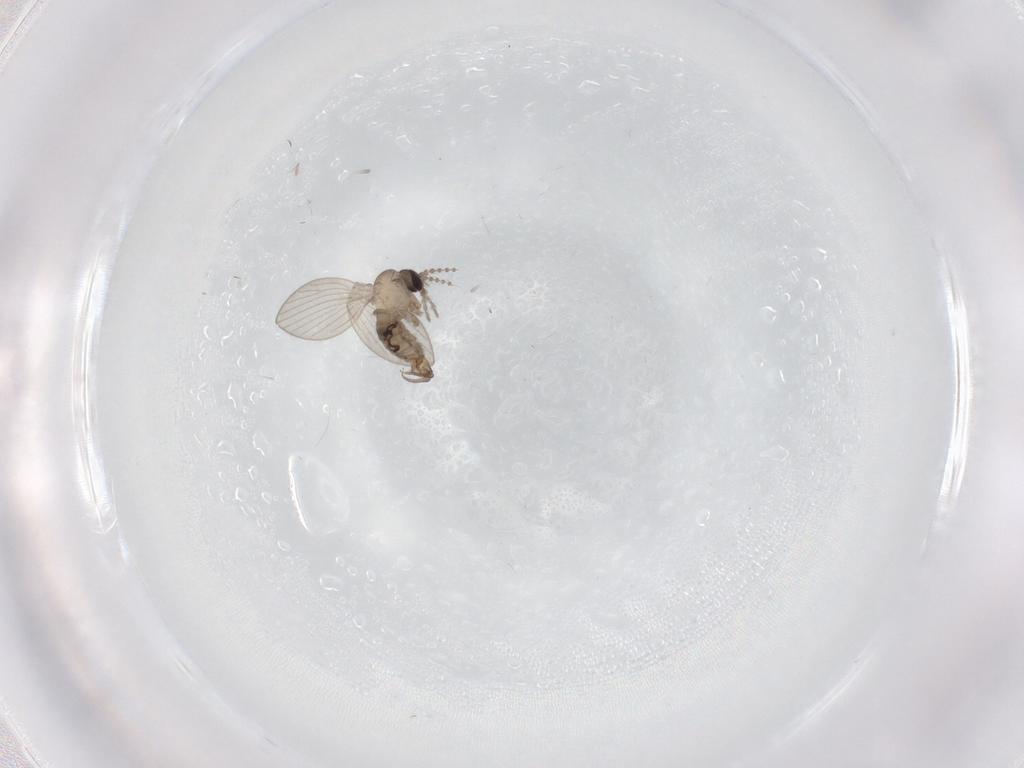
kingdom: Animalia
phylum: Arthropoda
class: Insecta
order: Diptera
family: Psychodidae
